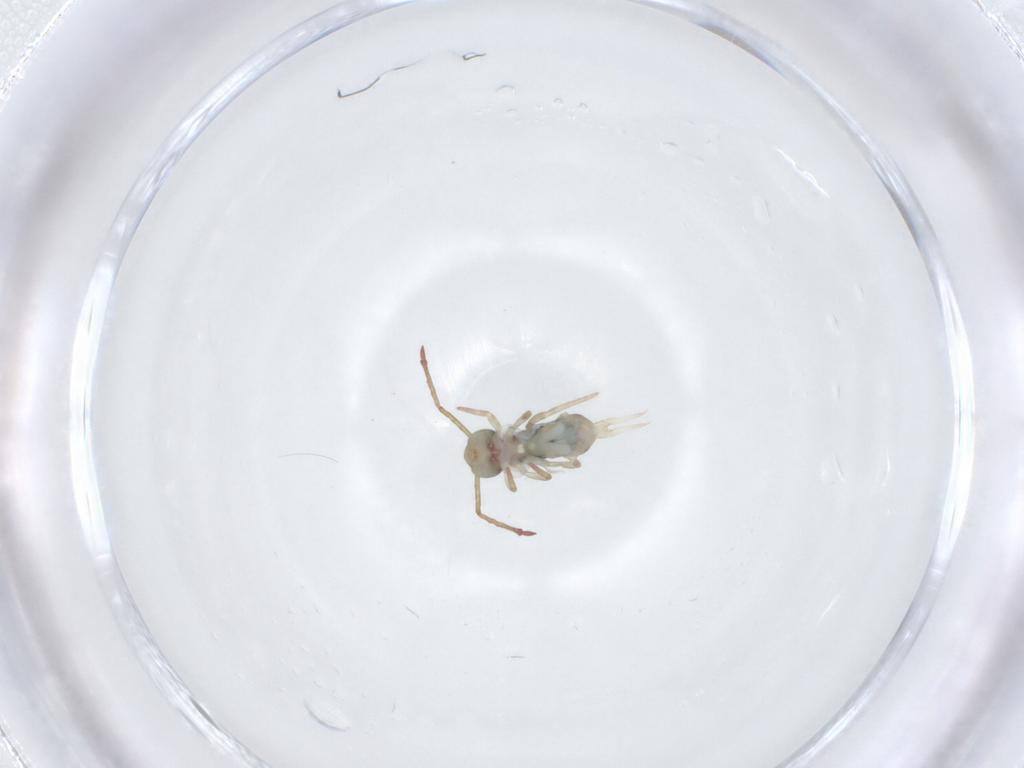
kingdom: Animalia
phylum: Arthropoda
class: Collembola
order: Symphypleona
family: Dicyrtomidae
